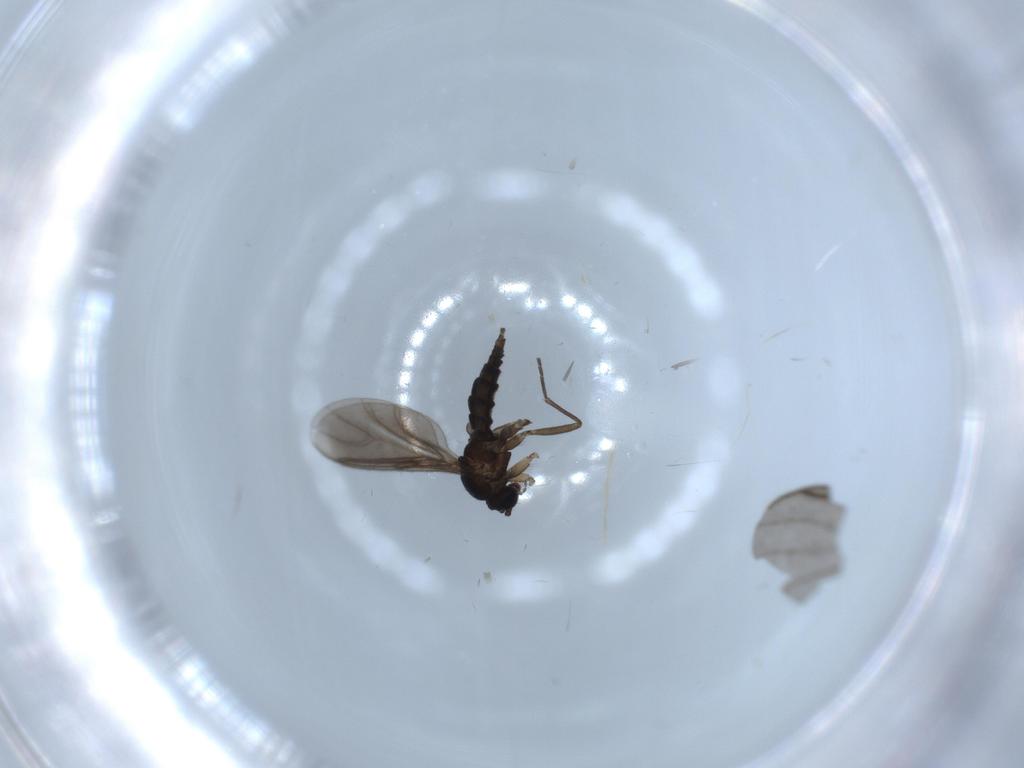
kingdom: Animalia
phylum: Arthropoda
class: Insecta
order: Diptera
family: Sciaridae
